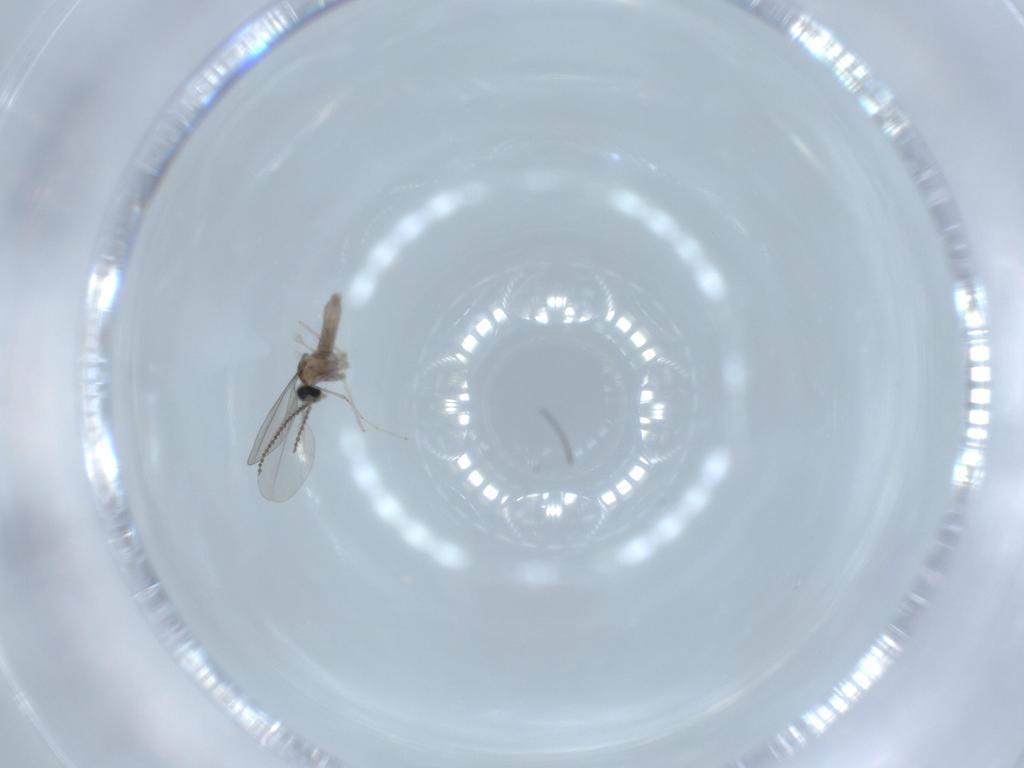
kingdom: Animalia
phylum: Arthropoda
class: Insecta
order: Diptera
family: Cecidomyiidae
